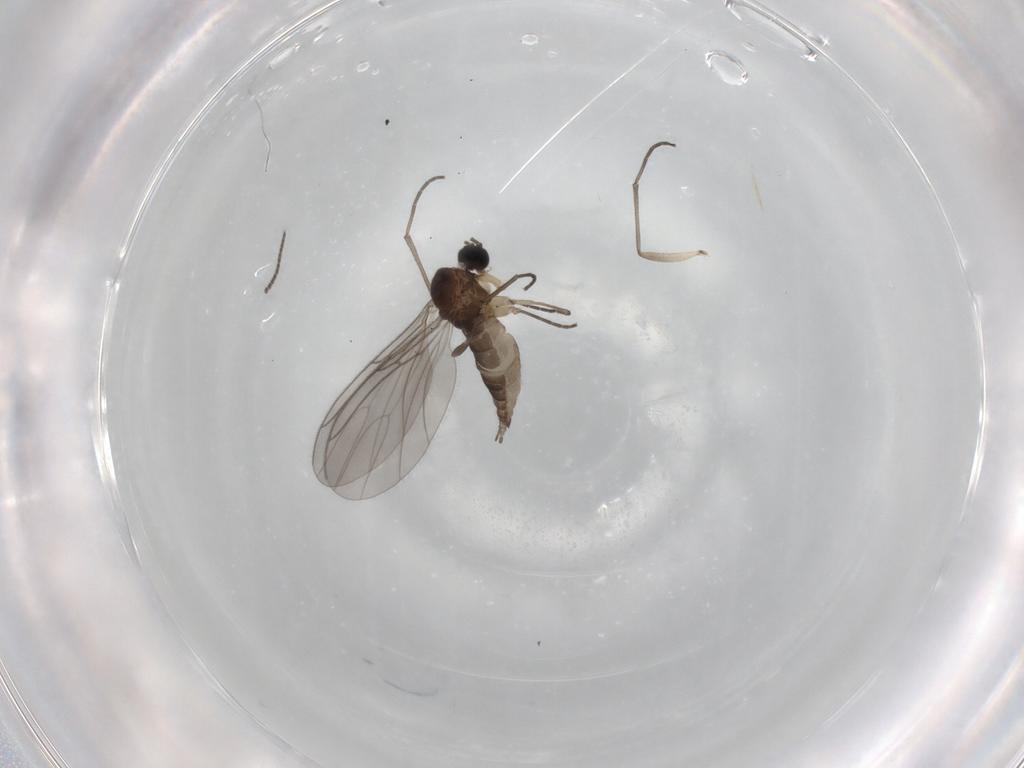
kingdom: Animalia
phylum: Arthropoda
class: Insecta
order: Diptera
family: Sciaridae
